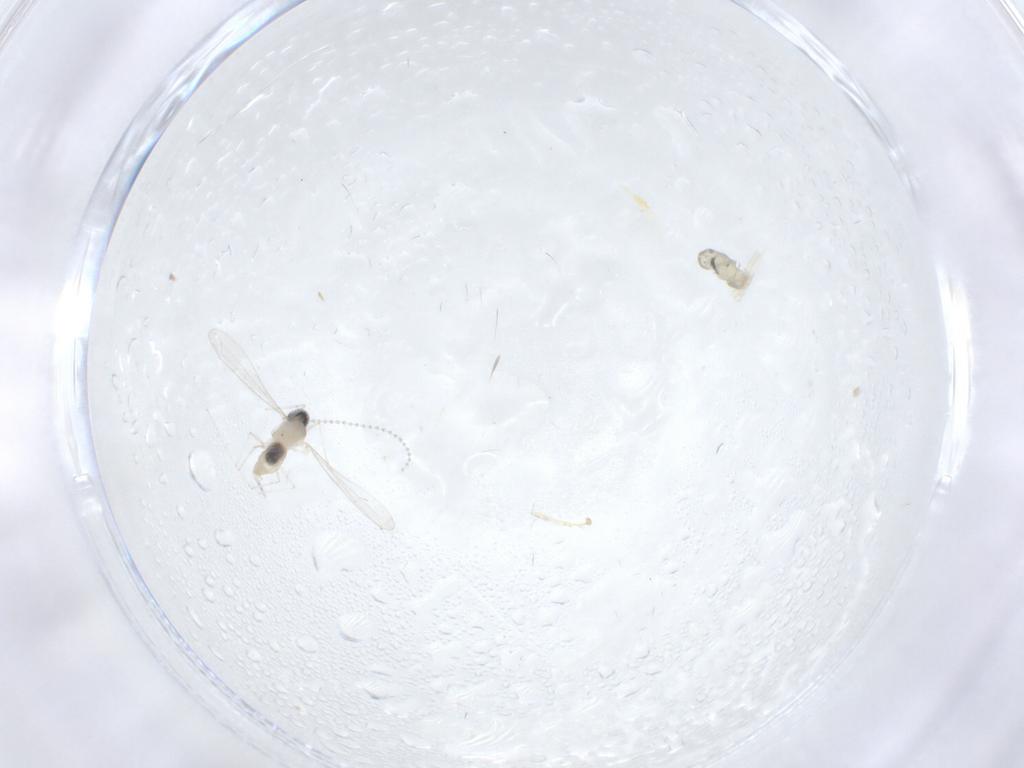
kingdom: Animalia
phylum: Arthropoda
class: Insecta
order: Diptera
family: Cecidomyiidae
